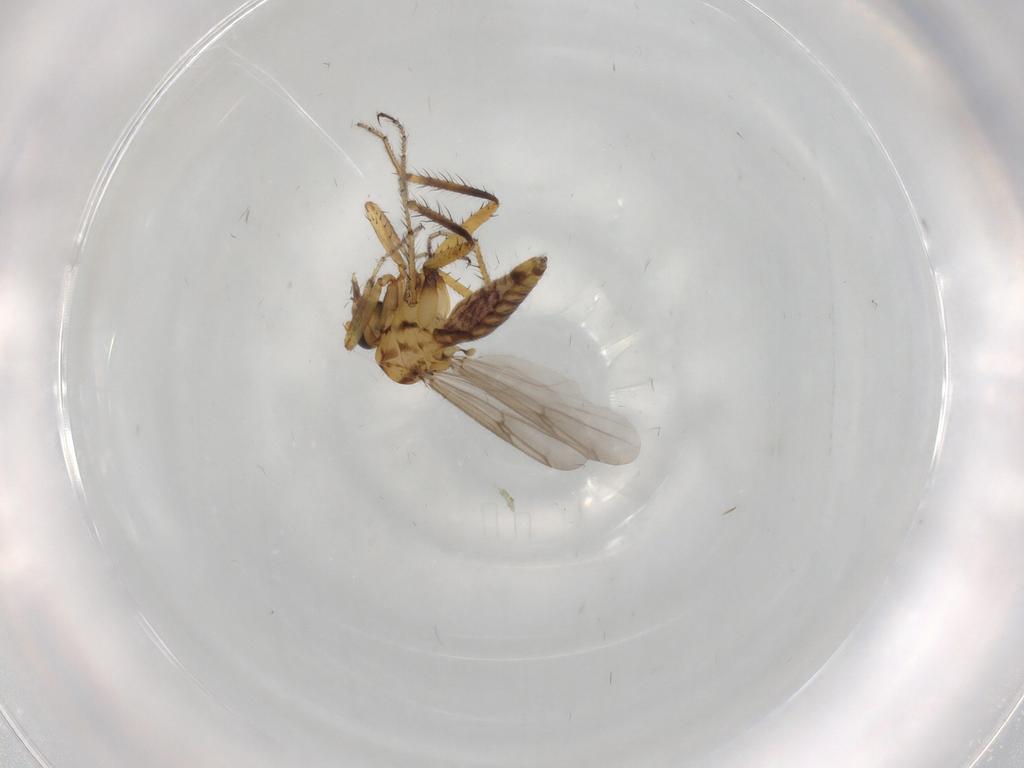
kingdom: Animalia
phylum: Arthropoda
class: Insecta
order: Diptera
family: Ceratopogonidae
